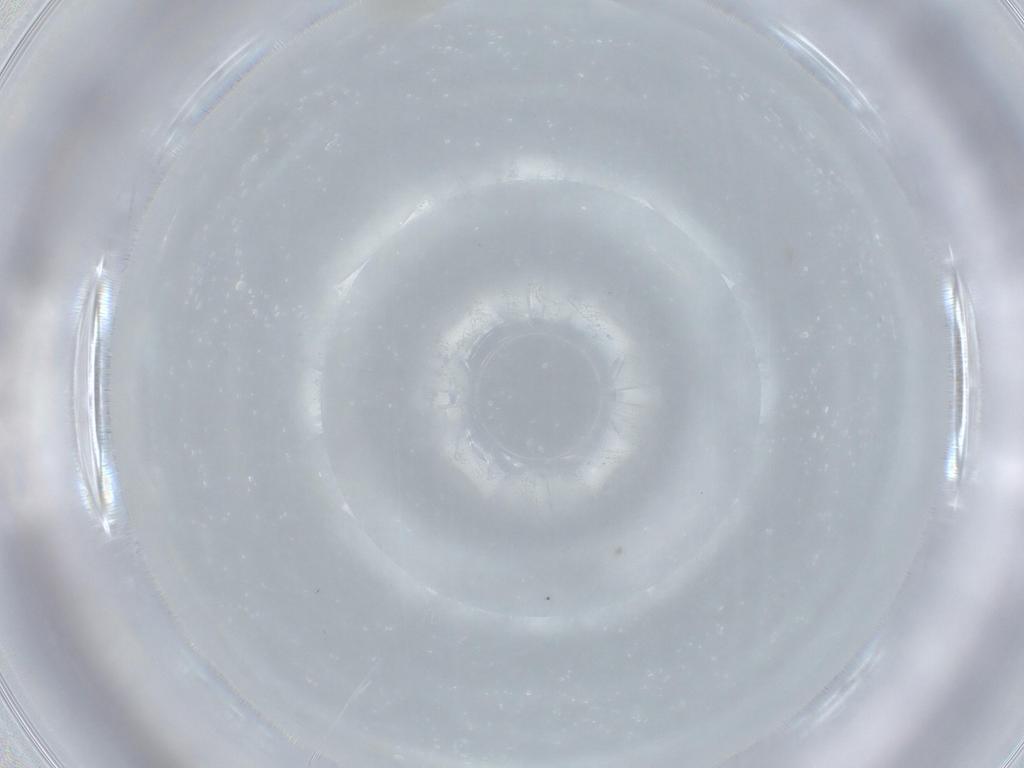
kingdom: Animalia
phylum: Arthropoda
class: Insecta
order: Diptera
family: Cecidomyiidae
